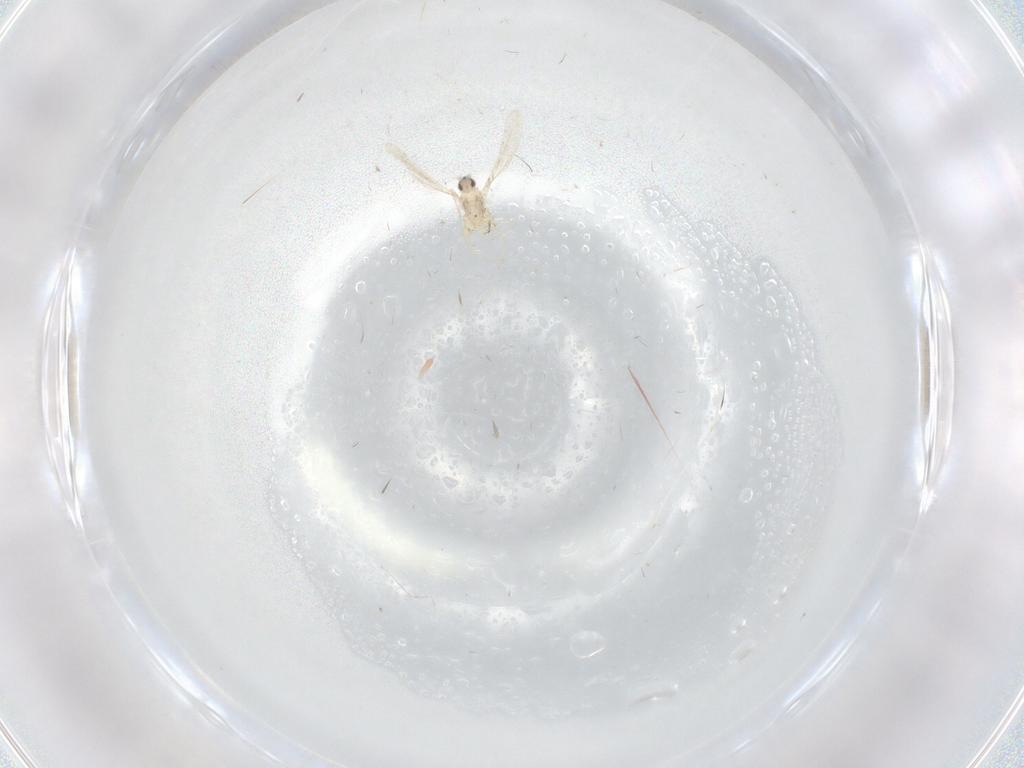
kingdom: Animalia
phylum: Arthropoda
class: Insecta
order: Diptera
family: Cecidomyiidae
